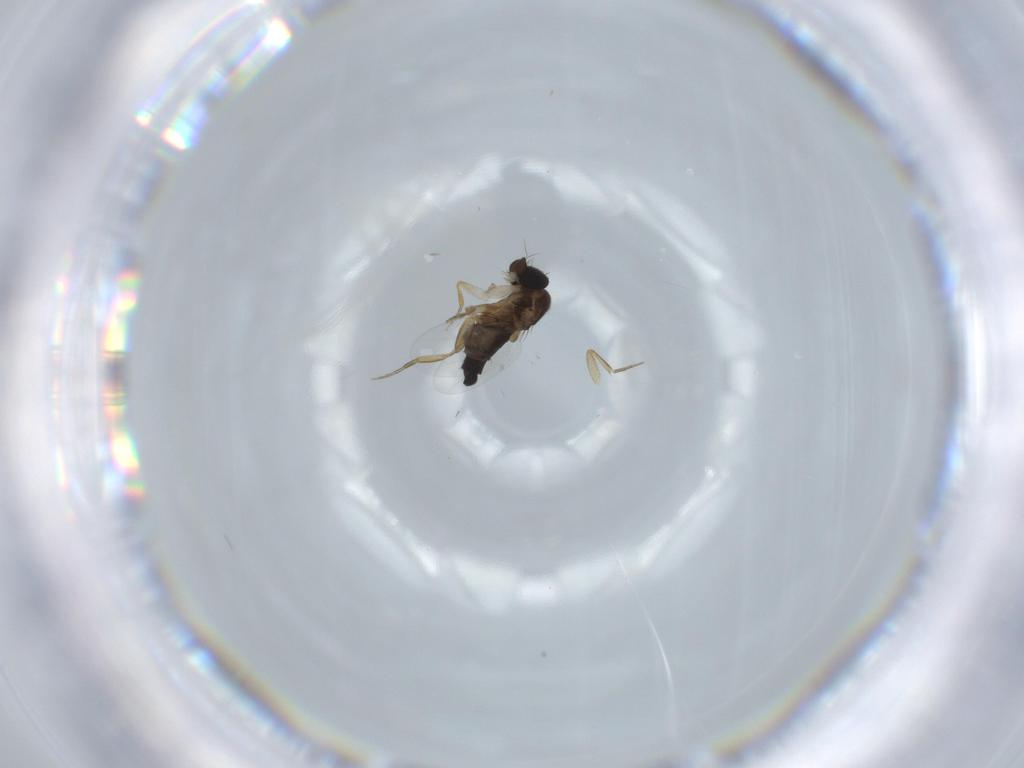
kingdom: Animalia
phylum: Arthropoda
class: Insecta
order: Diptera
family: Phoridae
